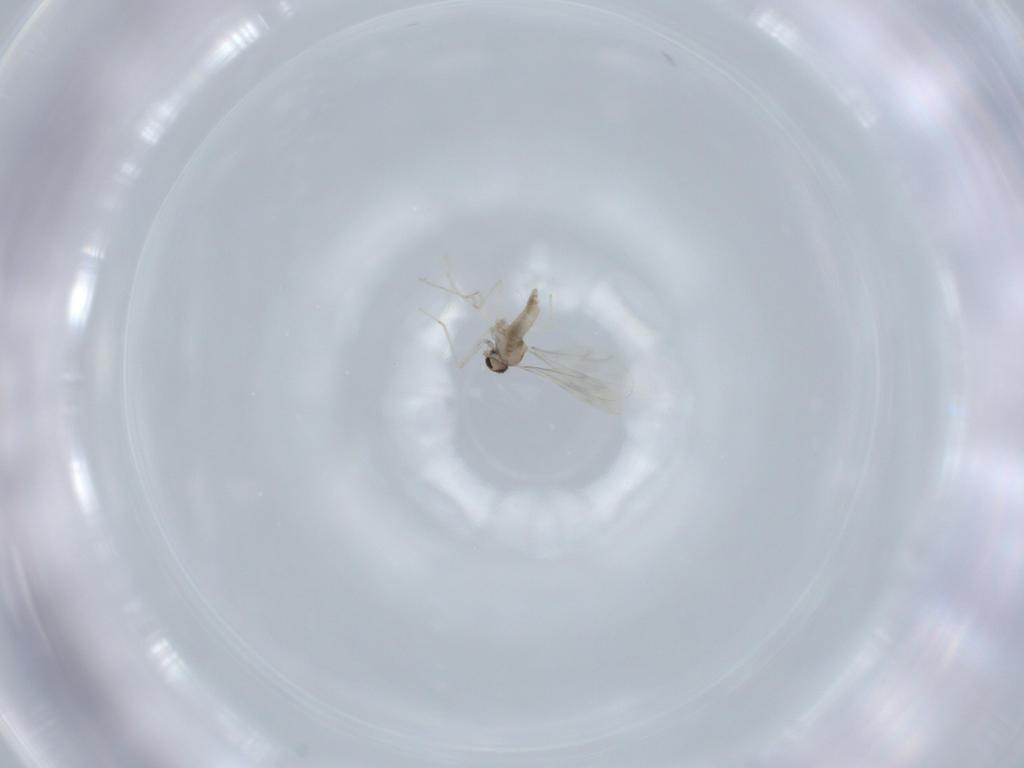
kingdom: Animalia
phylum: Arthropoda
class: Insecta
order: Diptera
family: Cecidomyiidae
